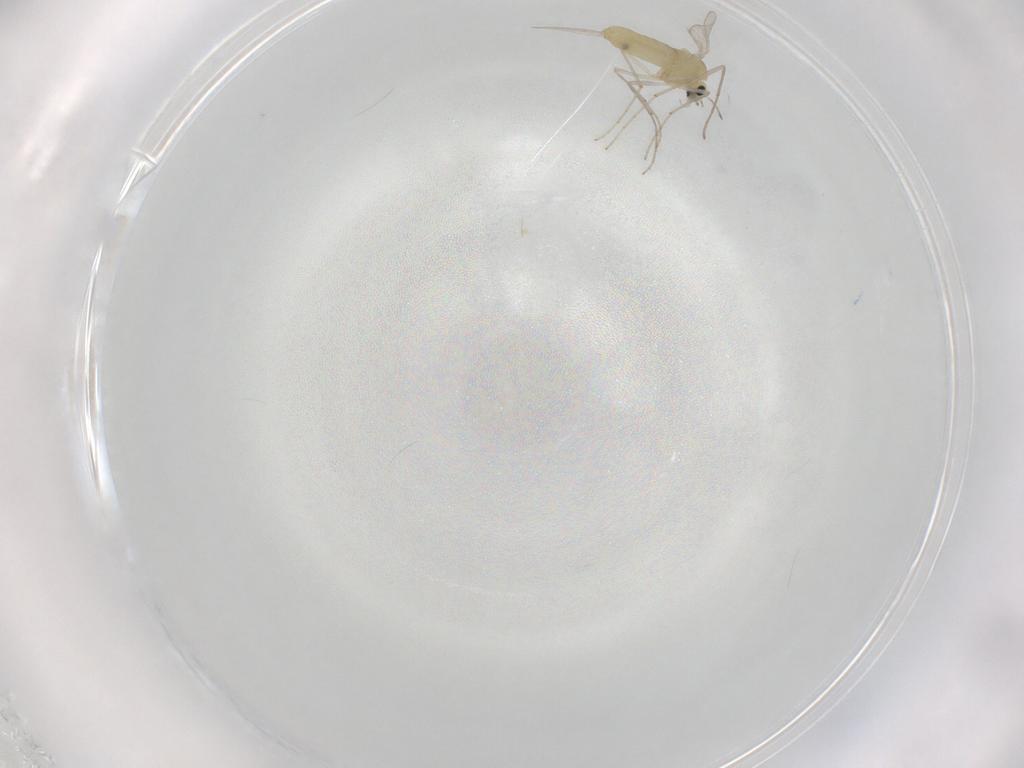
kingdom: Animalia
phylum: Arthropoda
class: Insecta
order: Diptera
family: Chironomidae
